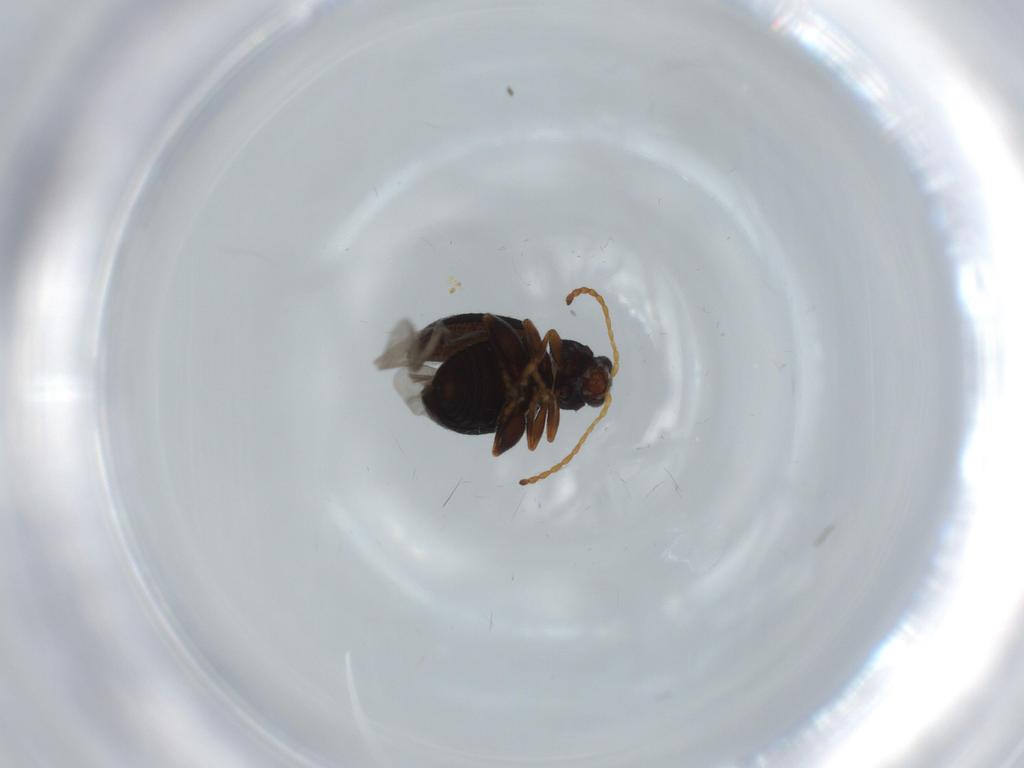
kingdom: Animalia
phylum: Arthropoda
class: Insecta
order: Coleoptera
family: Chrysomelidae
